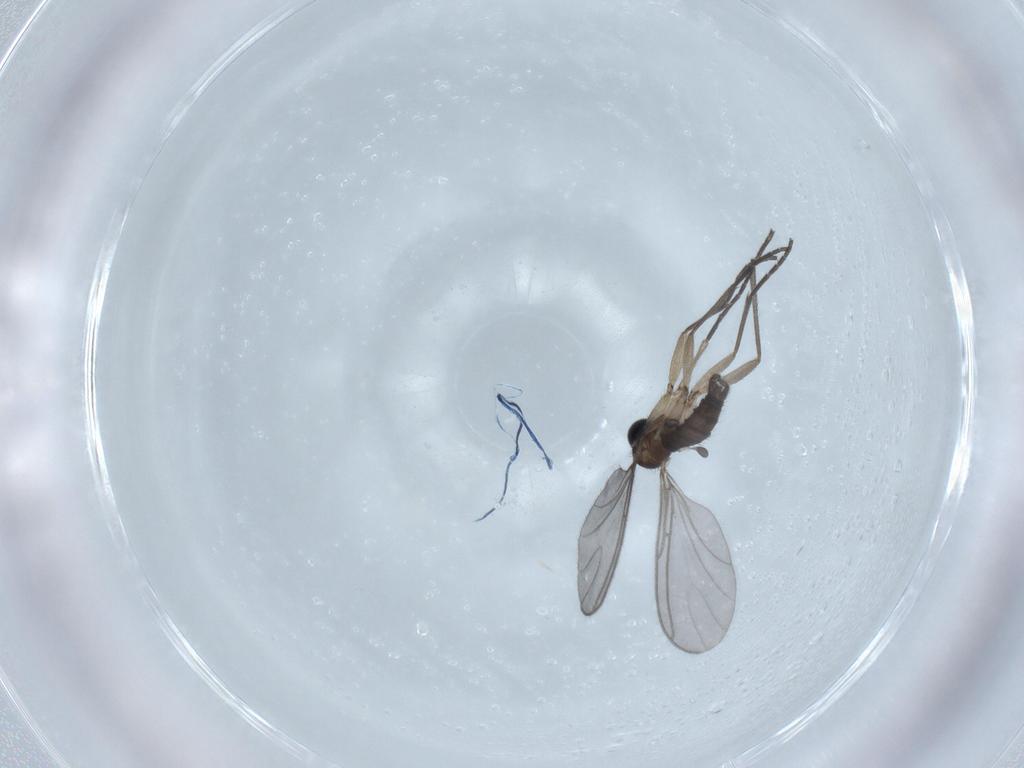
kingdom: Animalia
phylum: Arthropoda
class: Insecta
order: Diptera
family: Sciaridae
